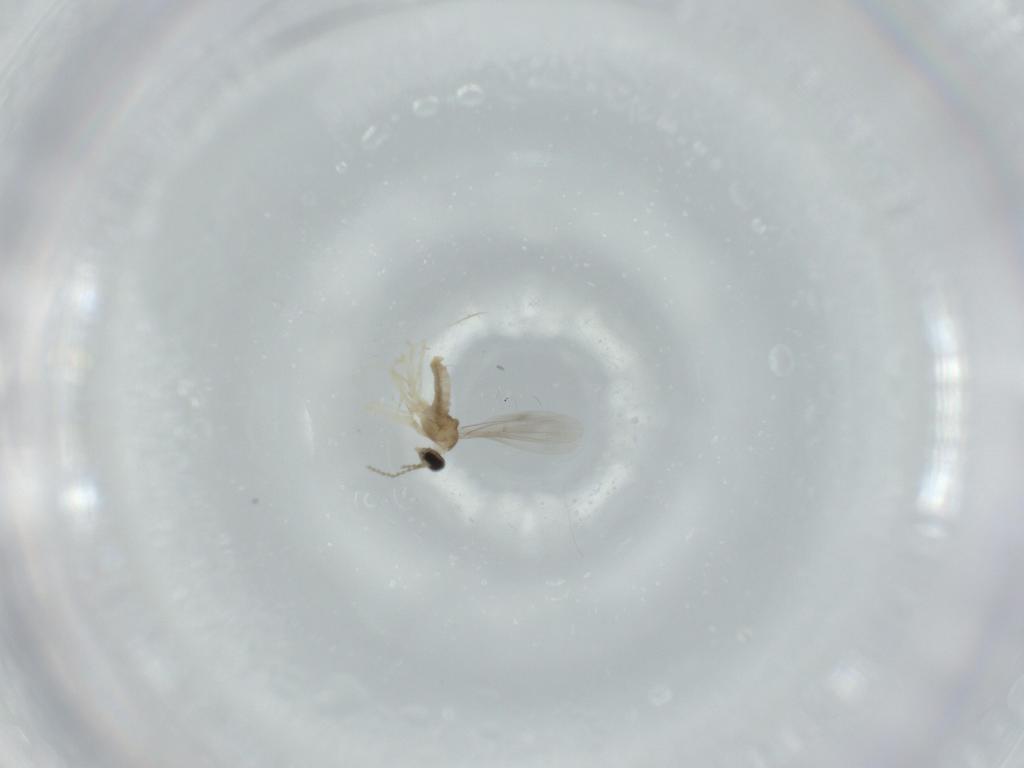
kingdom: Animalia
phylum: Arthropoda
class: Insecta
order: Diptera
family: Cecidomyiidae
